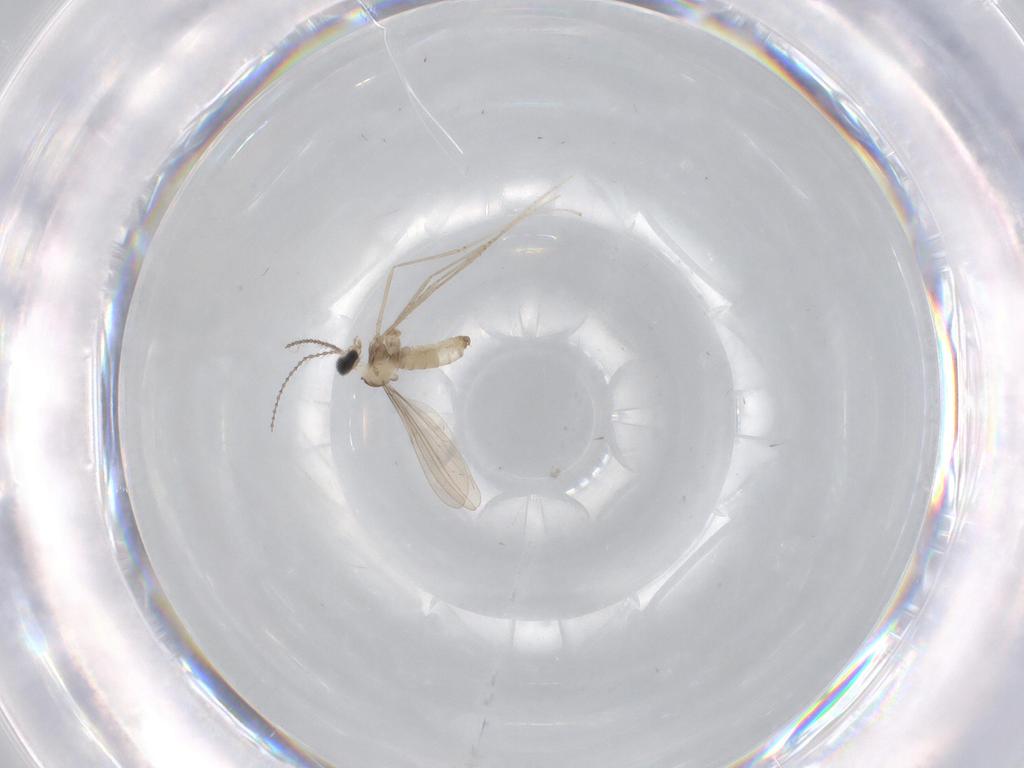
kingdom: Animalia
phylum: Arthropoda
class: Insecta
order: Diptera
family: Cecidomyiidae
